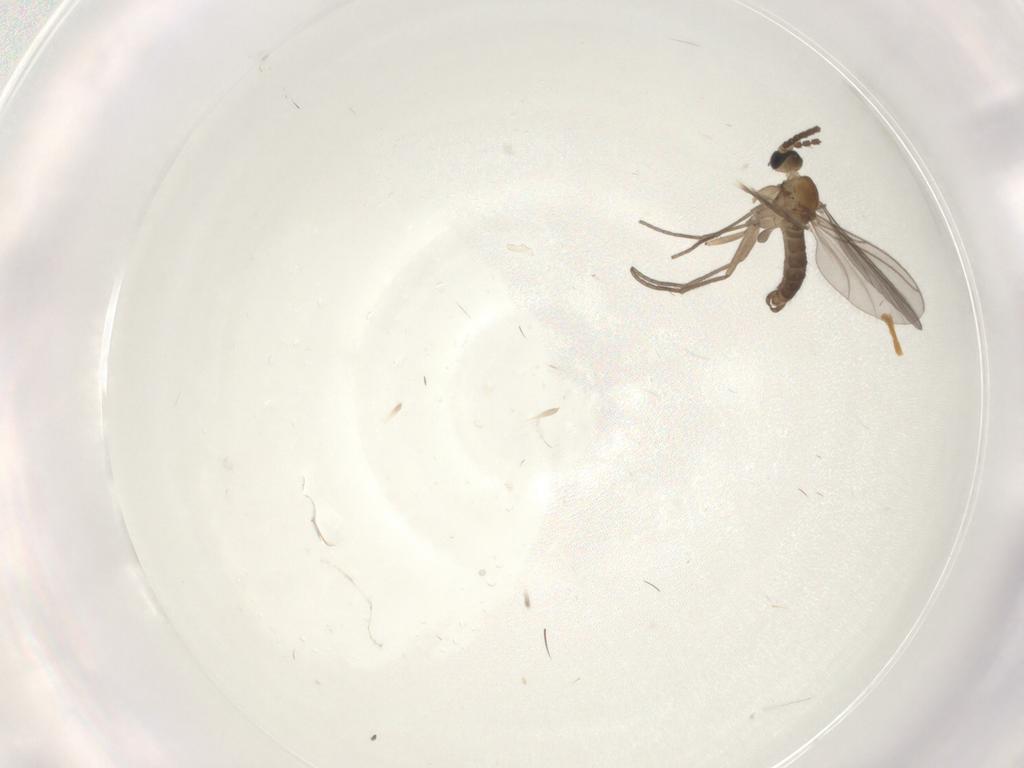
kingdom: Animalia
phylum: Arthropoda
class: Insecta
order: Diptera
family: Sciaridae
